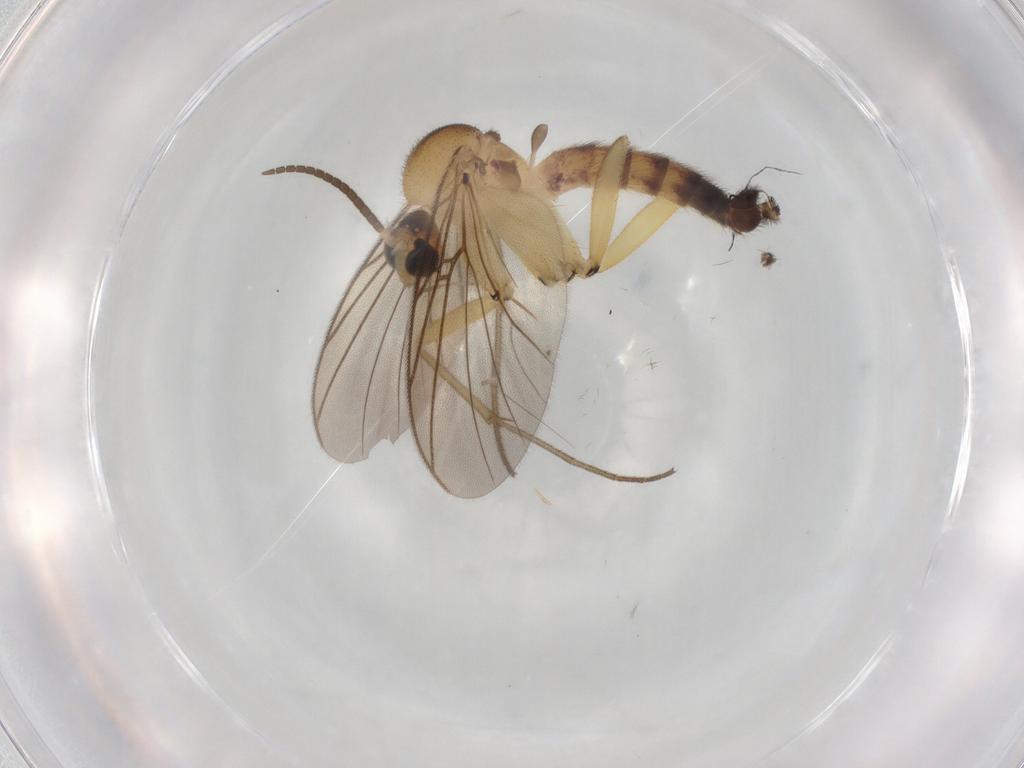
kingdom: Animalia
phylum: Arthropoda
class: Insecta
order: Diptera
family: Mycetophilidae
